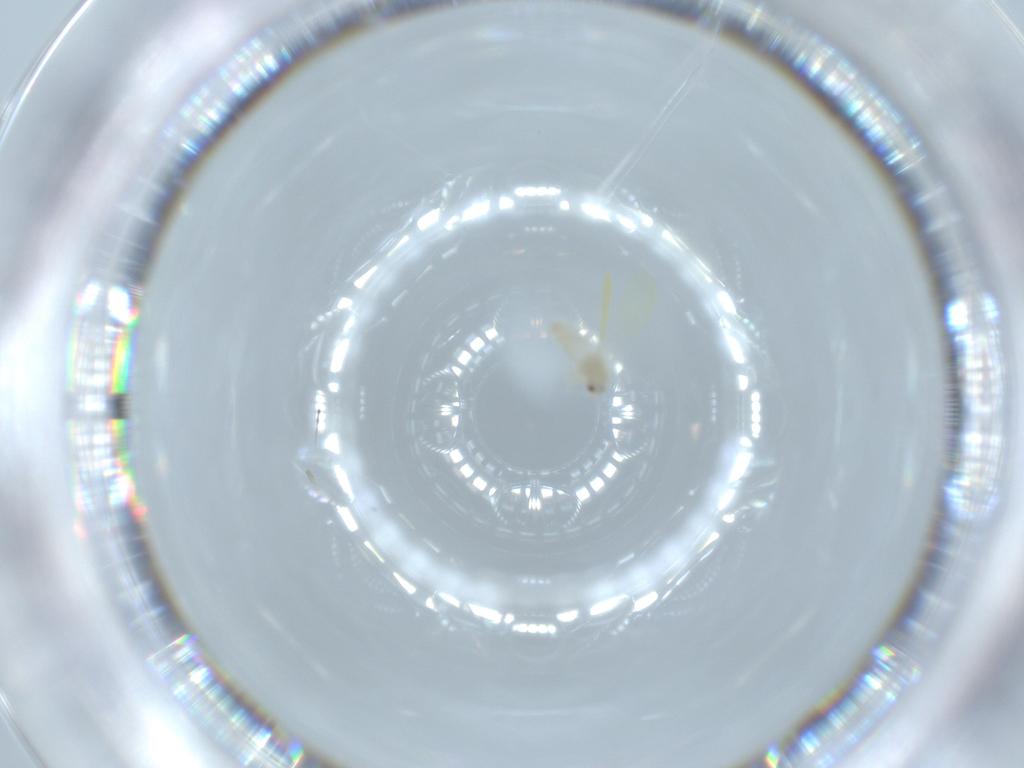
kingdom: Animalia
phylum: Arthropoda
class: Insecta
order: Hemiptera
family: Aleyrodidae
